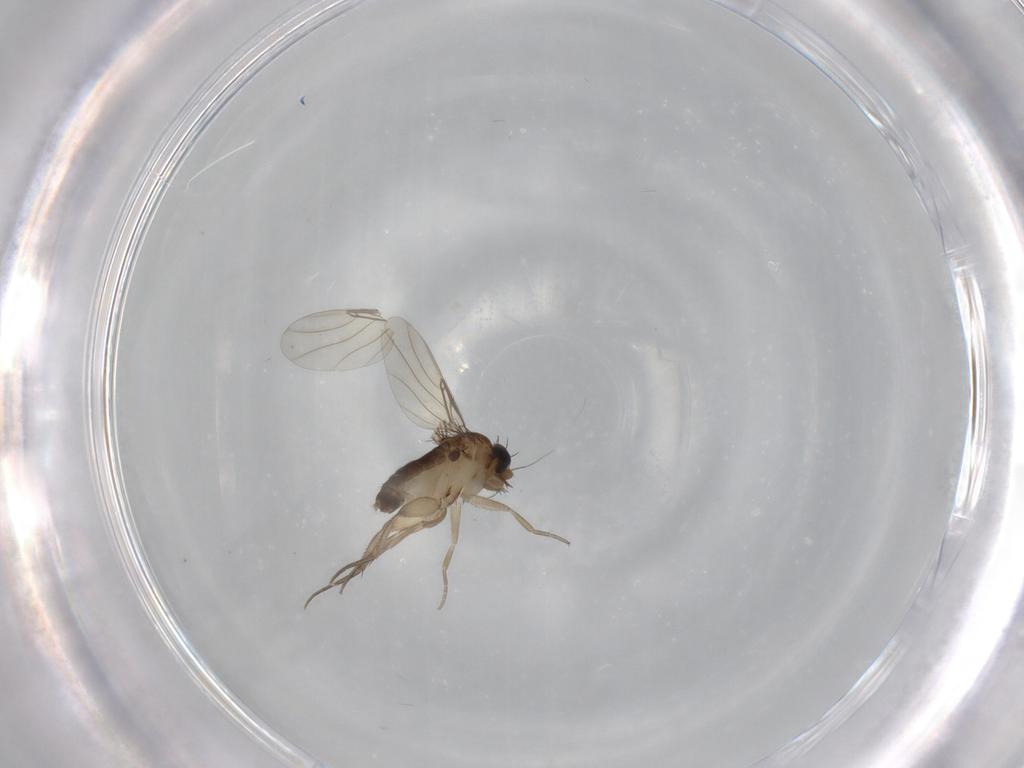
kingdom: Animalia
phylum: Arthropoda
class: Insecta
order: Diptera
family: Phoridae
